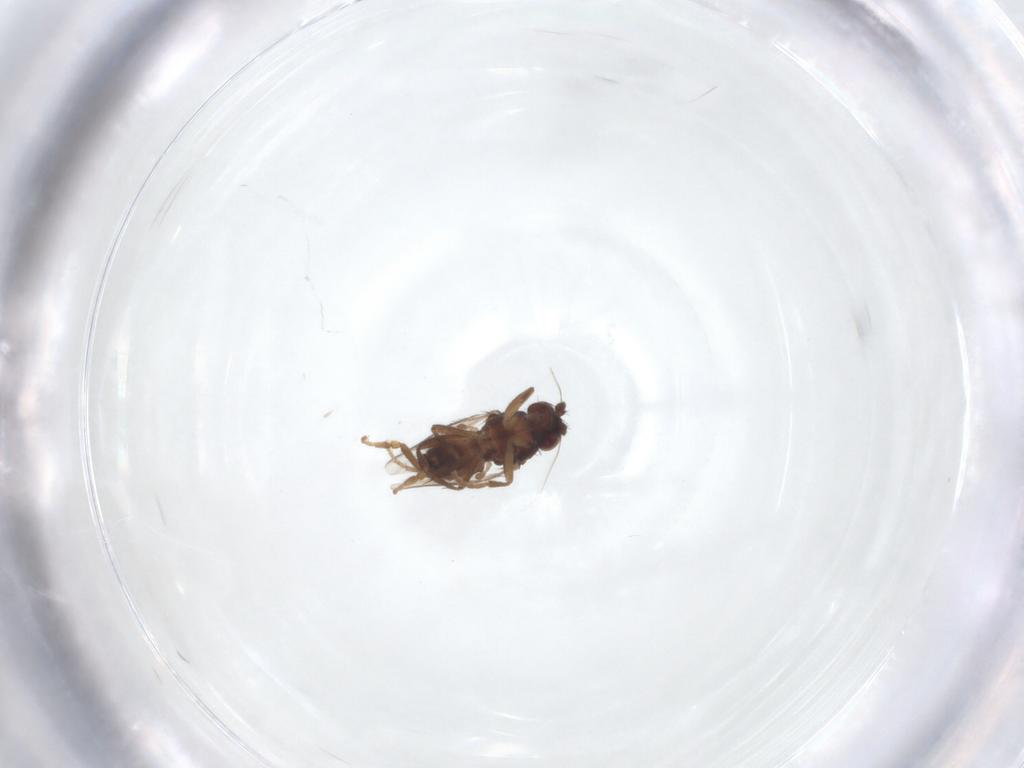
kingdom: Animalia
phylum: Arthropoda
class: Insecta
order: Diptera
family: Sphaeroceridae
